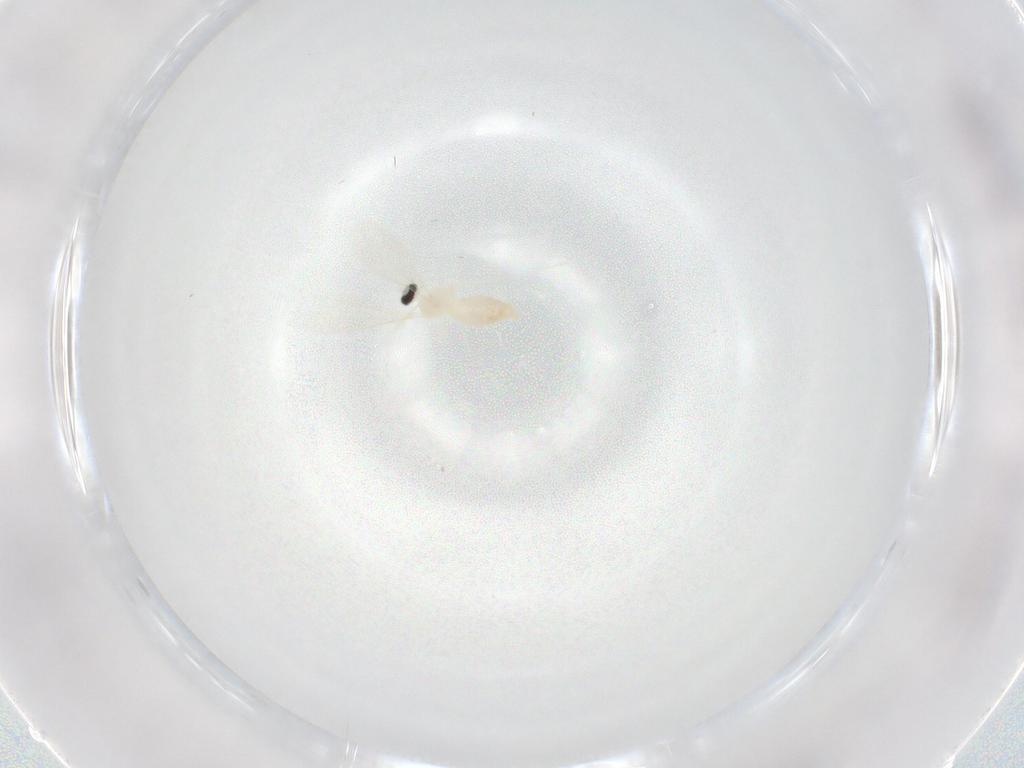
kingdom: Animalia
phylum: Arthropoda
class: Insecta
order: Diptera
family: Cecidomyiidae
